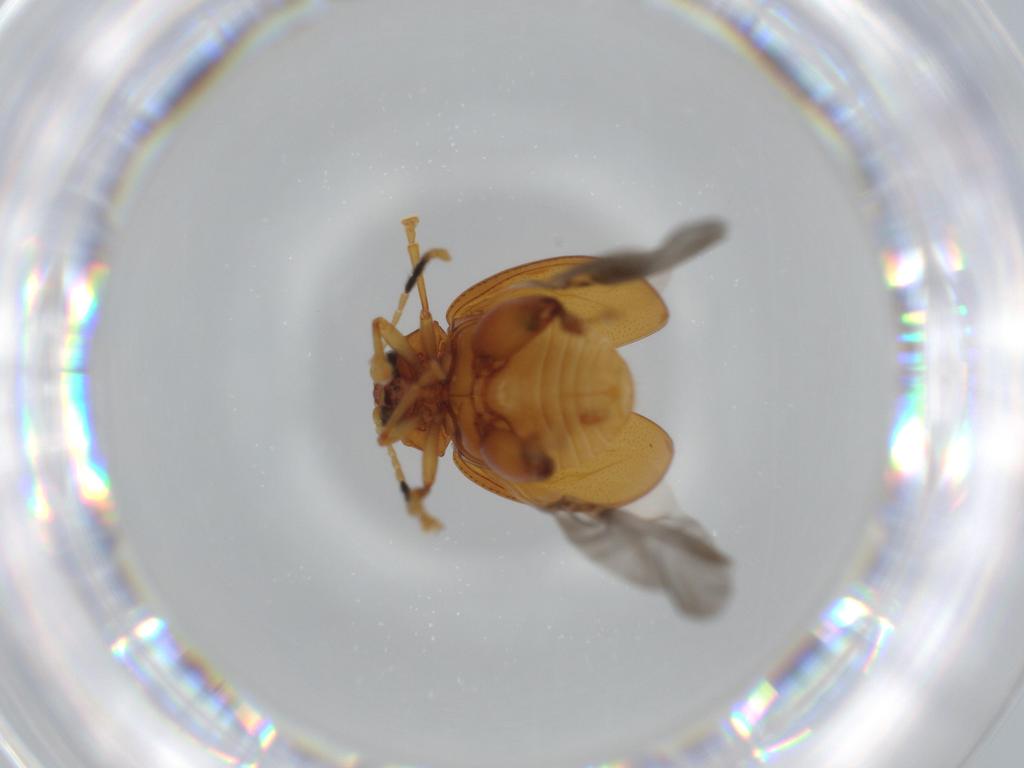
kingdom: Animalia
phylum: Arthropoda
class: Insecta
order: Coleoptera
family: Chrysomelidae
